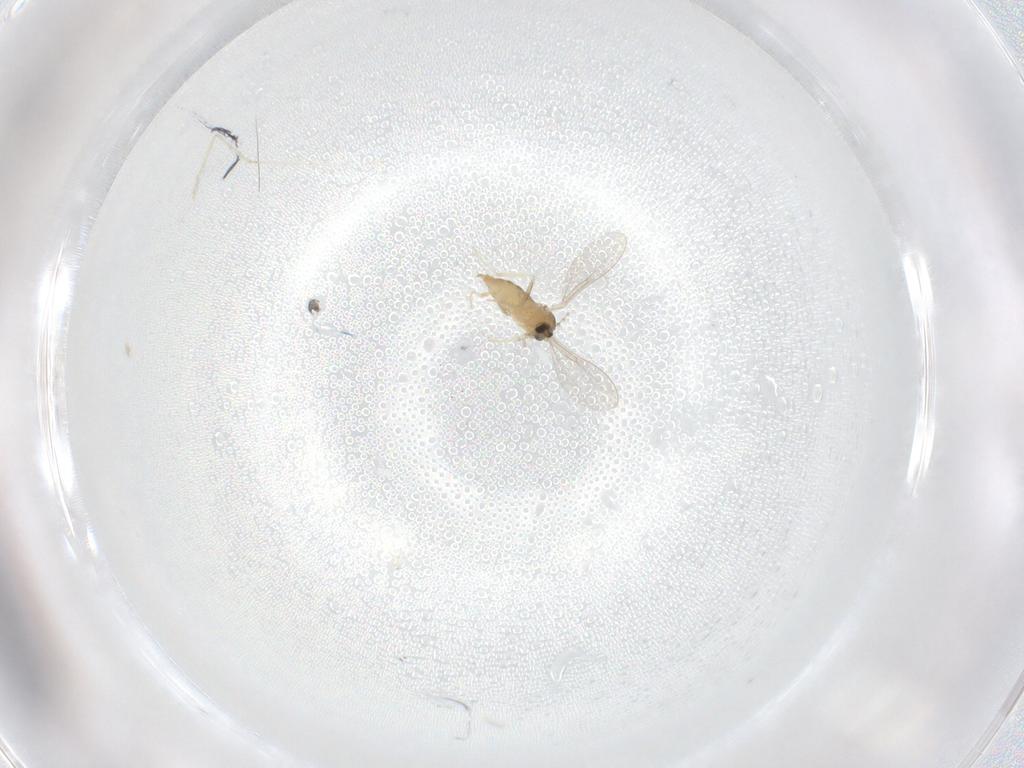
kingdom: Animalia
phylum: Arthropoda
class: Insecta
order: Diptera
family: Cecidomyiidae
